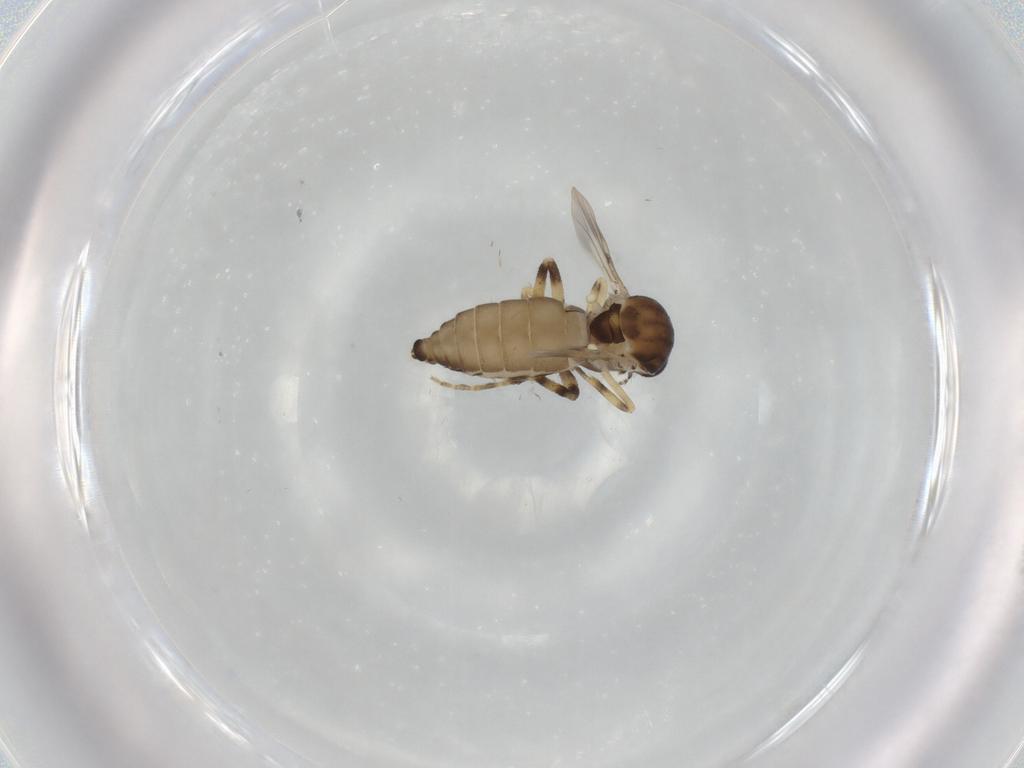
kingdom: Animalia
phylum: Arthropoda
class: Insecta
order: Diptera
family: Ceratopogonidae
